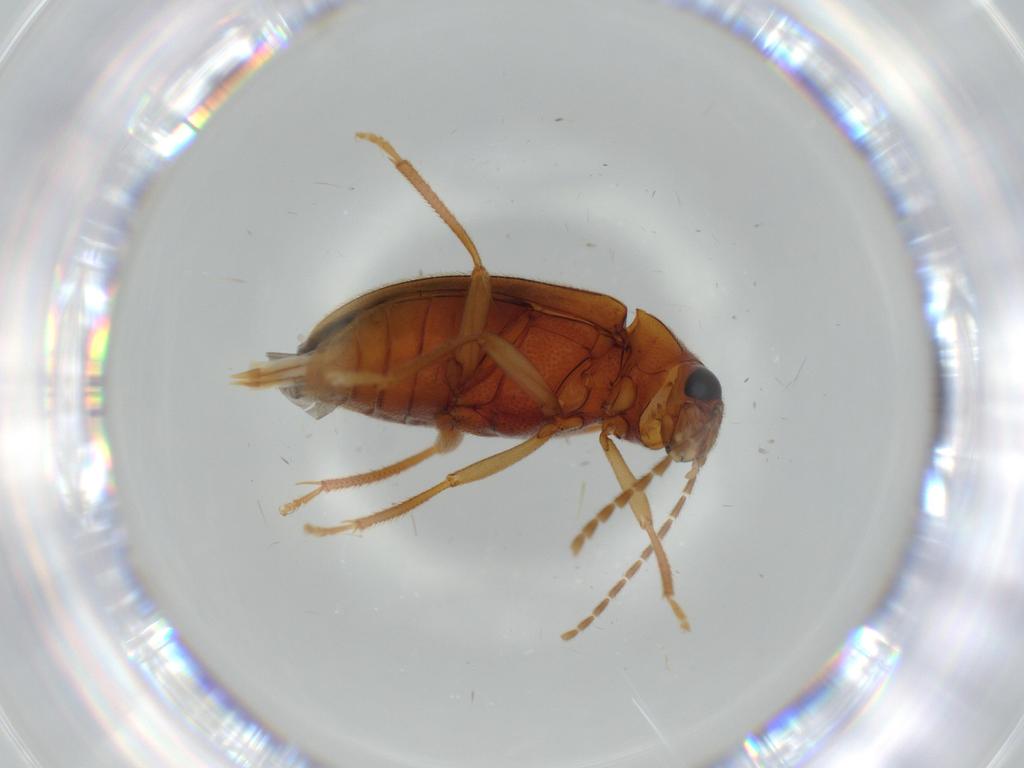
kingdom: Animalia
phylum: Arthropoda
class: Insecta
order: Coleoptera
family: Ptilodactylidae
